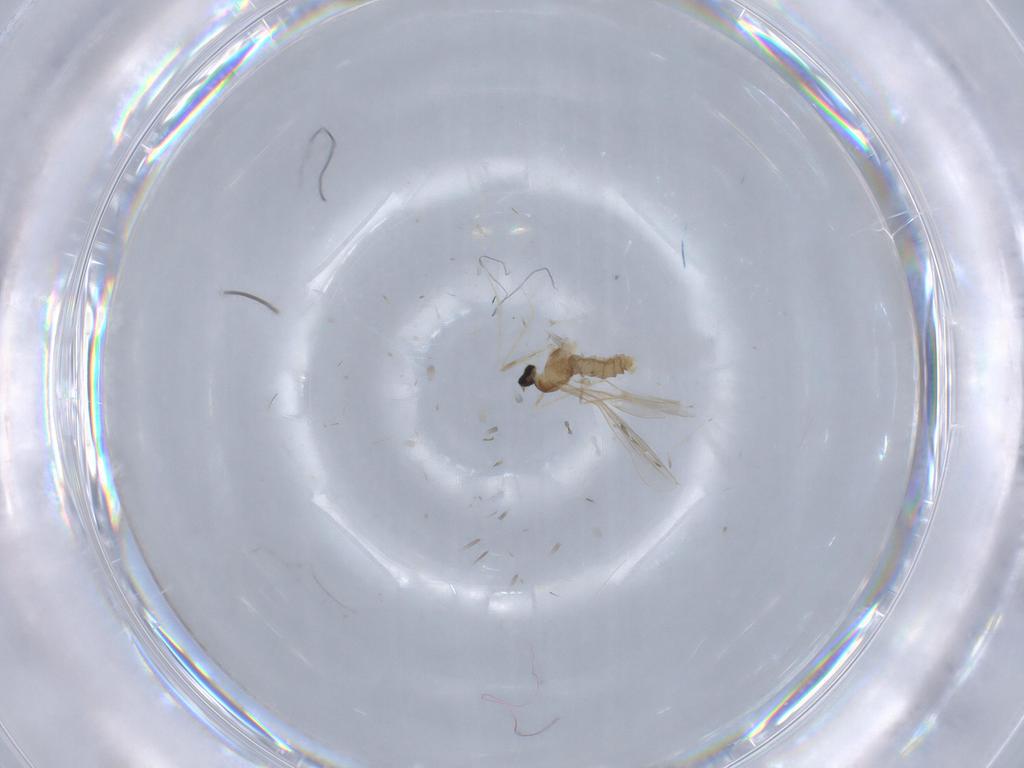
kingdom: Animalia
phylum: Arthropoda
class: Insecta
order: Diptera
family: Cecidomyiidae
